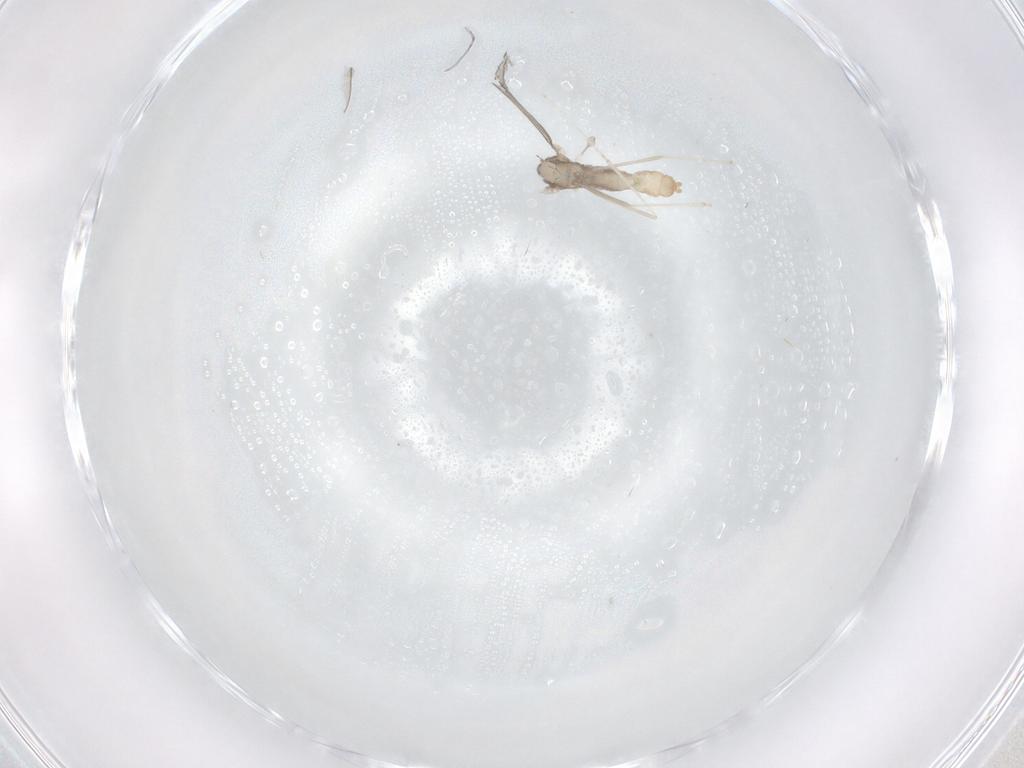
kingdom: Animalia
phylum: Arthropoda
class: Insecta
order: Diptera
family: Cecidomyiidae
